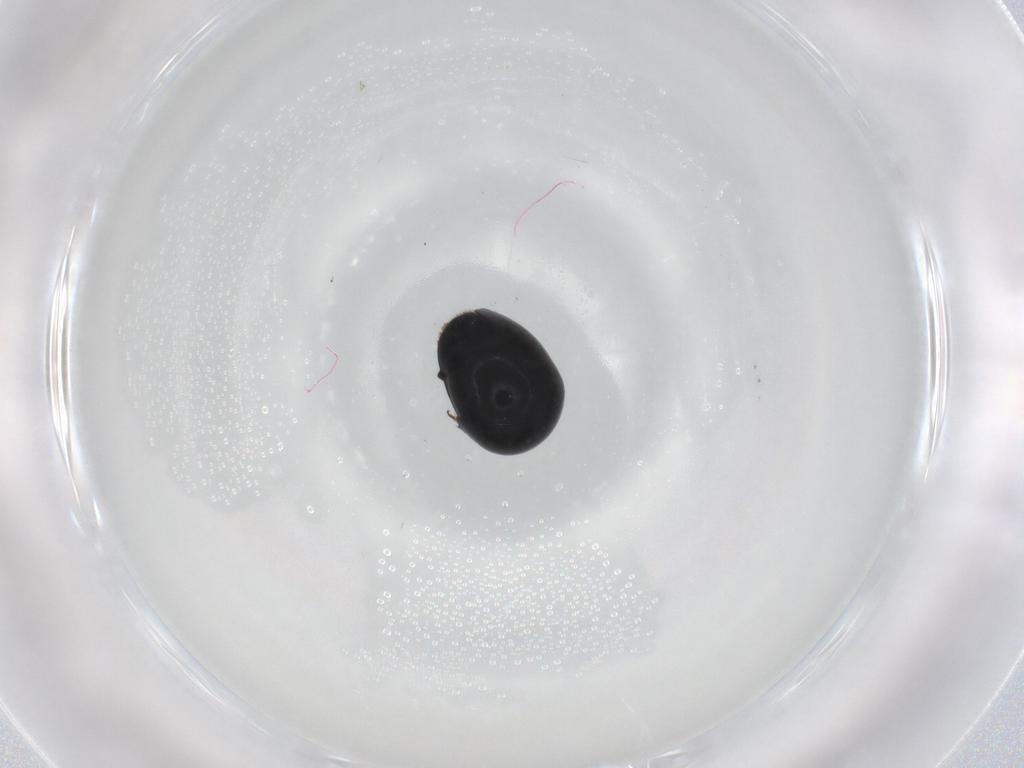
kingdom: Animalia
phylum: Arthropoda
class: Insecta
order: Coleoptera
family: Cybocephalidae
